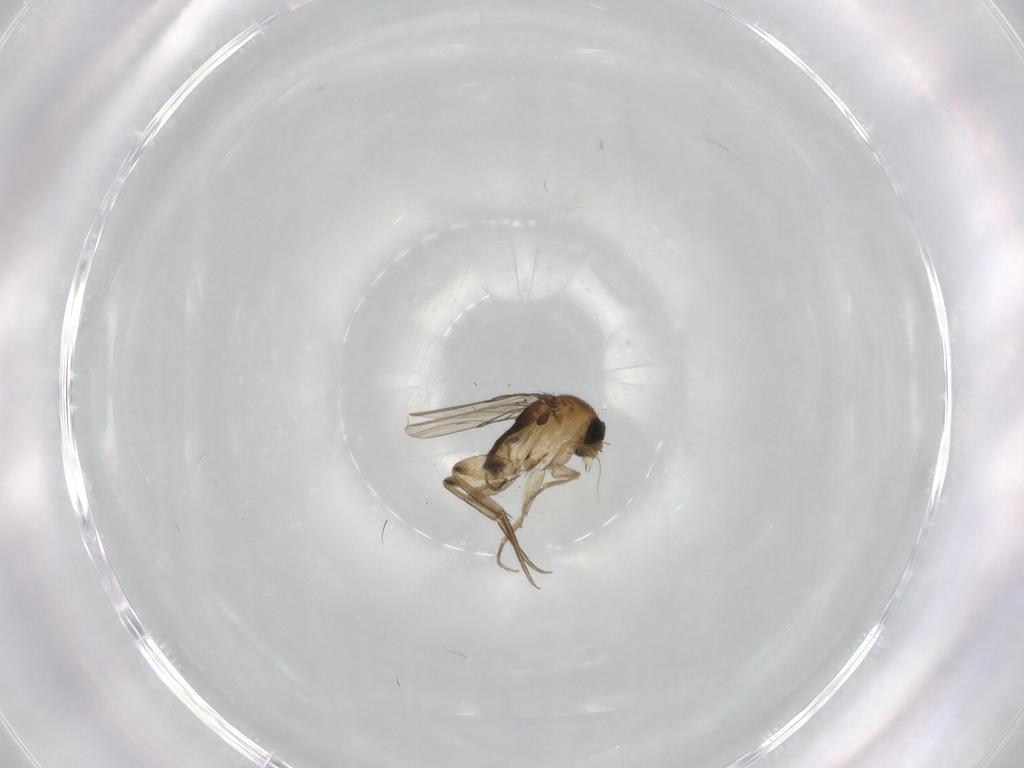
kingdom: Animalia
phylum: Arthropoda
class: Insecta
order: Diptera
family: Phoridae
